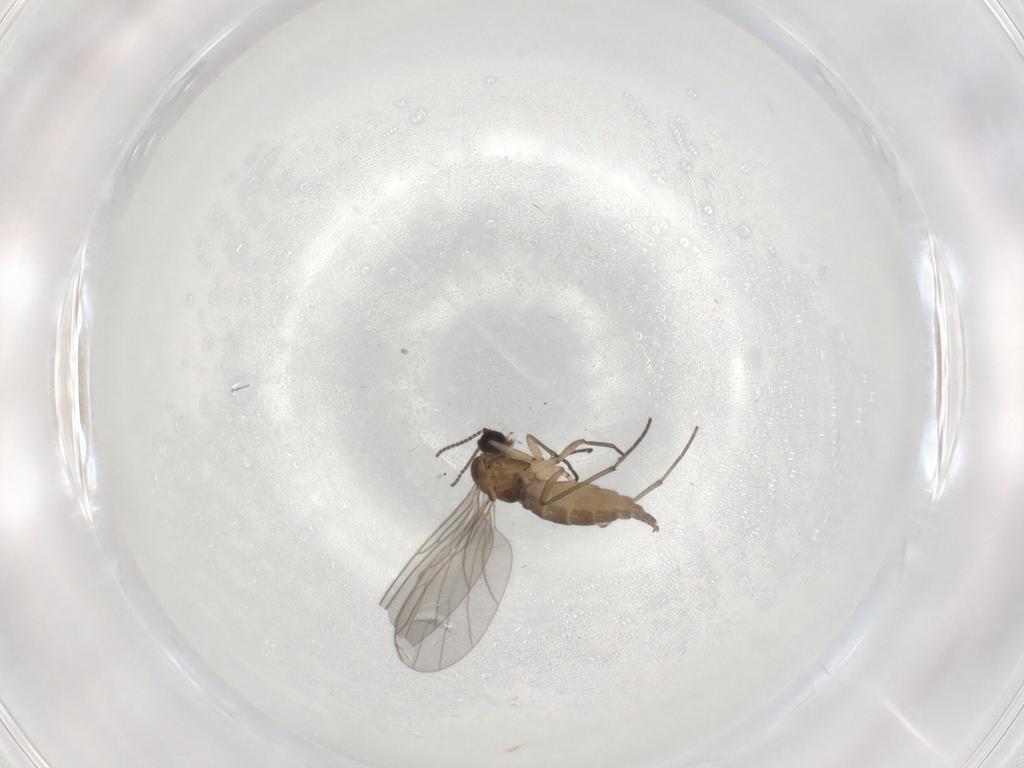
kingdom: Animalia
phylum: Arthropoda
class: Insecta
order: Diptera
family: Sciaridae
